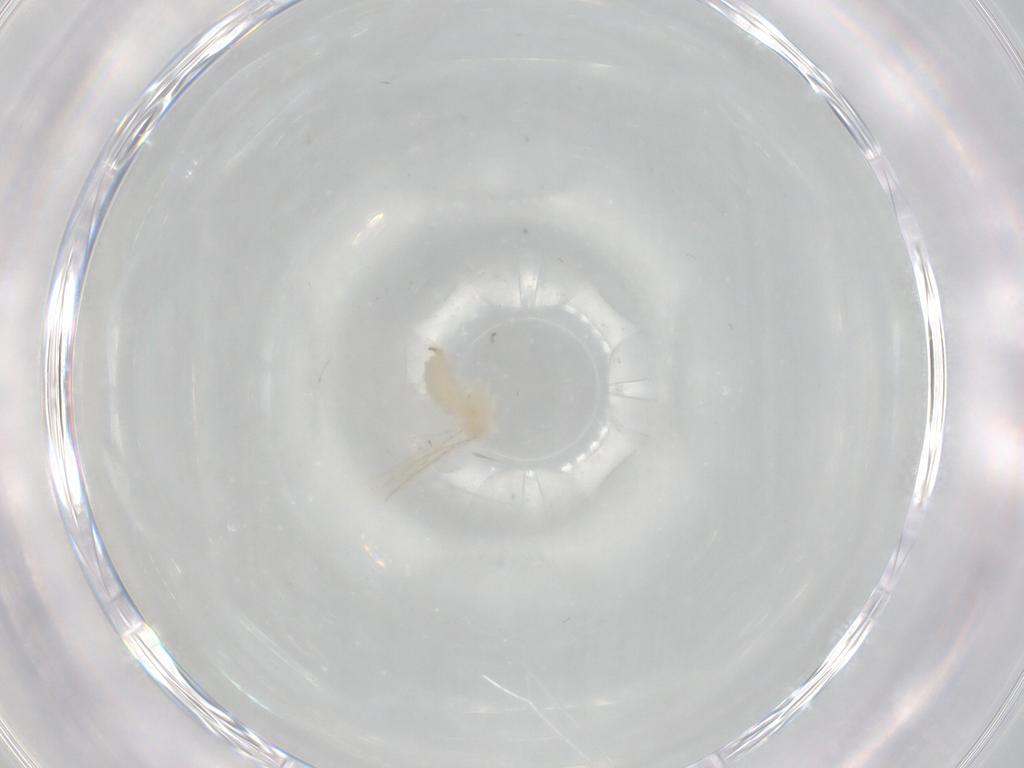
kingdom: Animalia
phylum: Arthropoda
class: Insecta
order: Diptera
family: Cecidomyiidae
